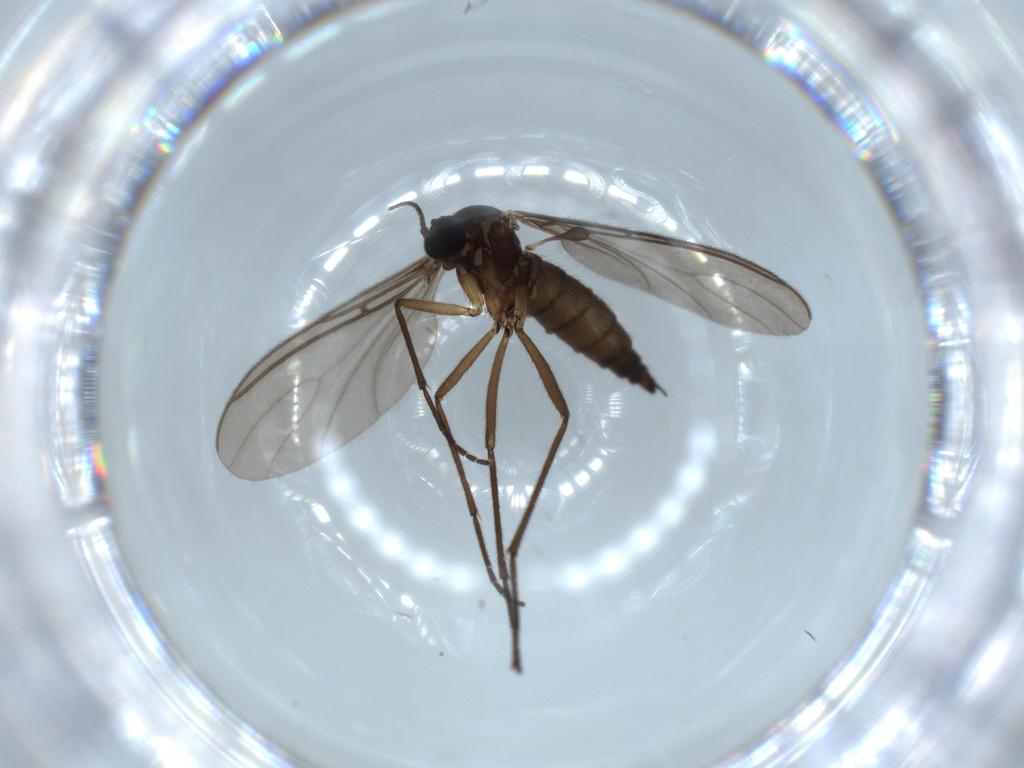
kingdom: Animalia
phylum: Arthropoda
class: Insecta
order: Diptera
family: Sciaridae
